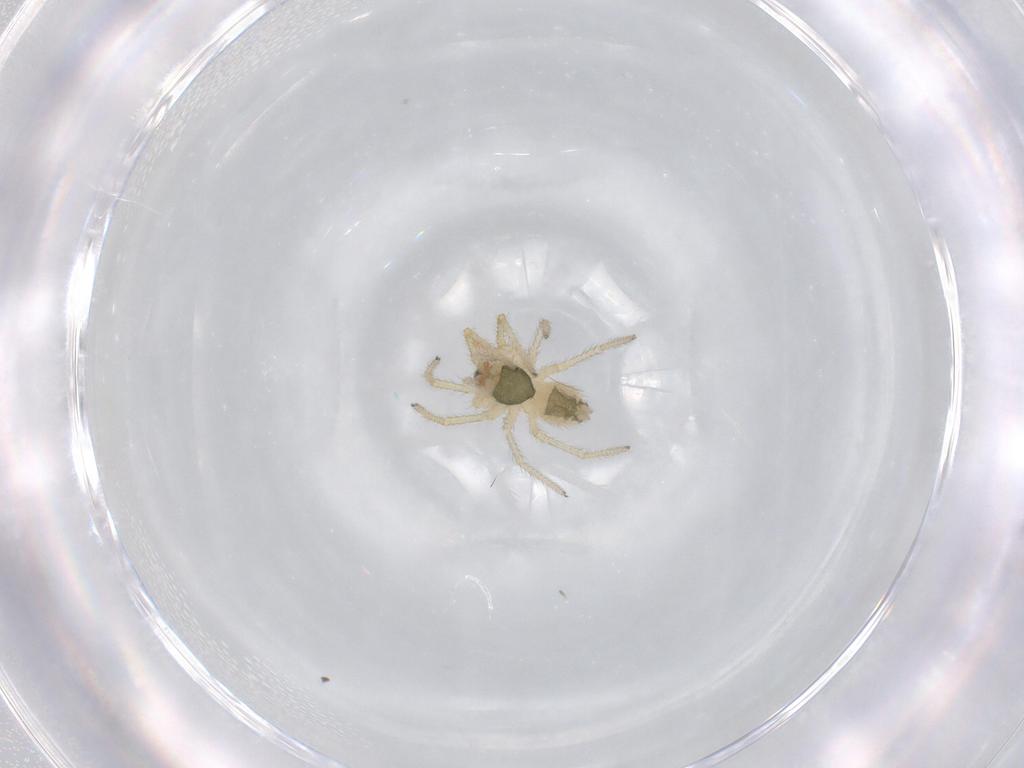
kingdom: Animalia
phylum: Arthropoda
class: Arachnida
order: Araneae
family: Linyphiidae
